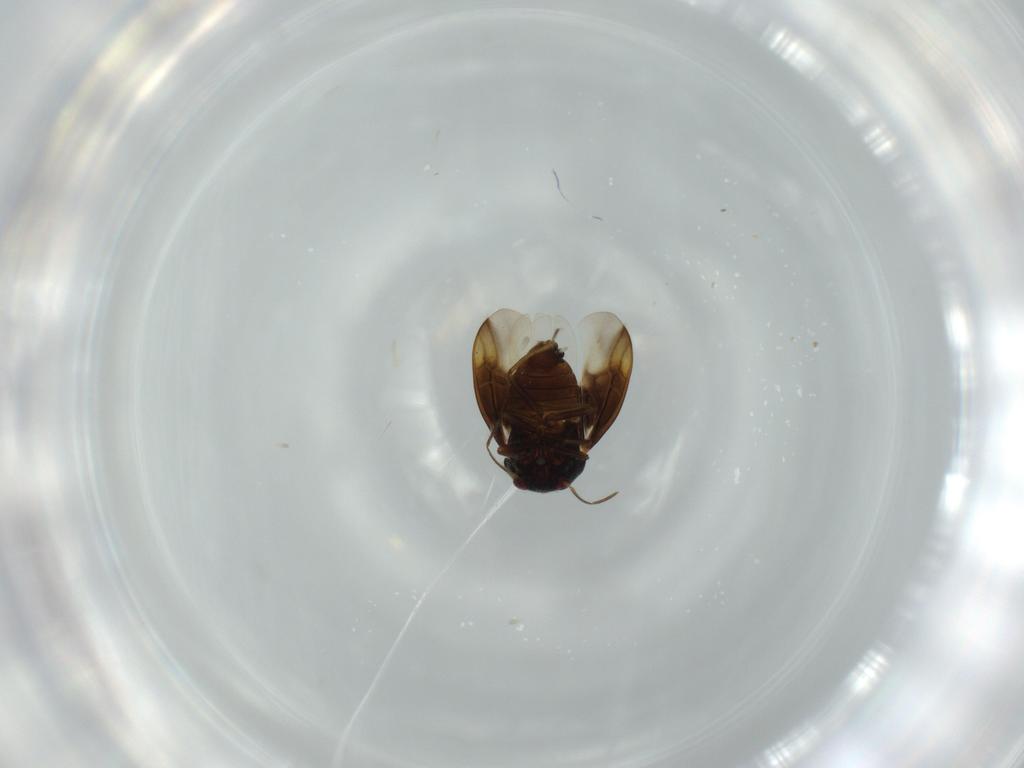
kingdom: Animalia
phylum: Arthropoda
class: Insecta
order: Hemiptera
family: Schizopteridae
